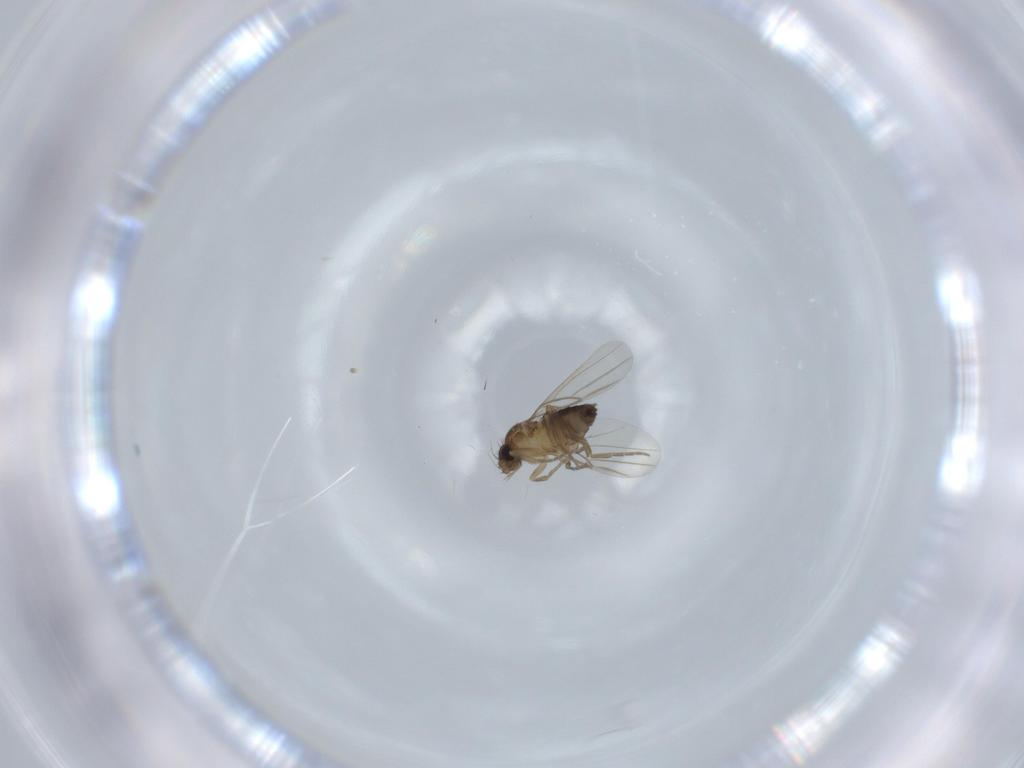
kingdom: Animalia
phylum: Arthropoda
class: Insecta
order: Diptera
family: Phoridae
